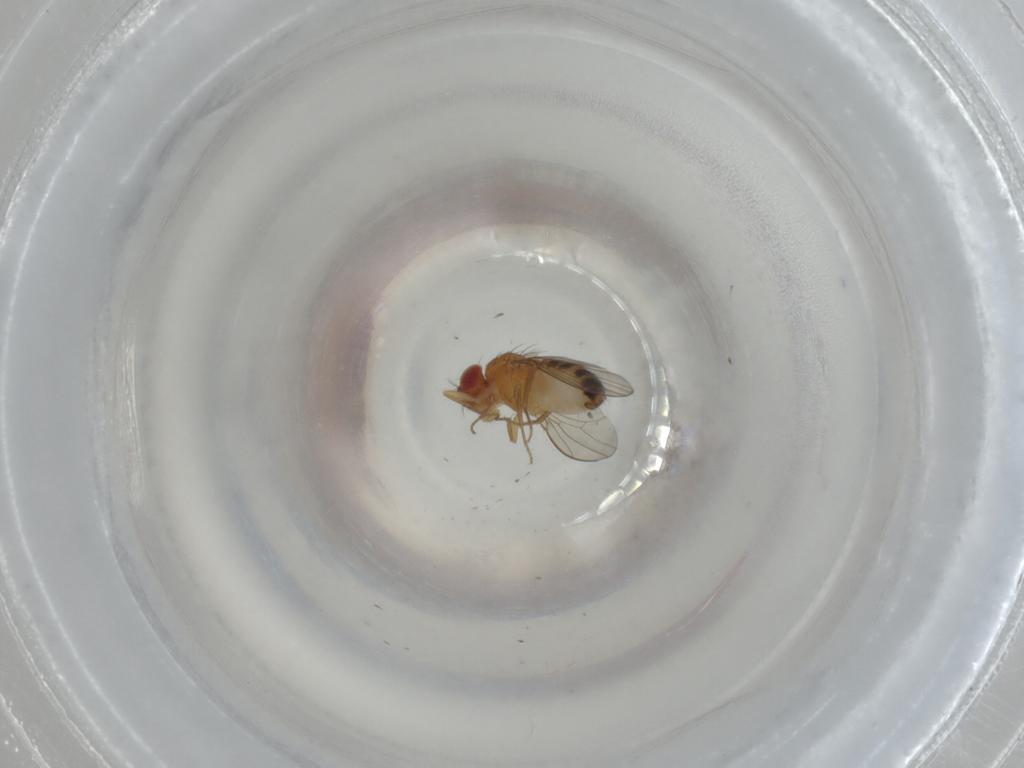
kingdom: Animalia
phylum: Arthropoda
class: Insecta
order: Diptera
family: Drosophilidae
